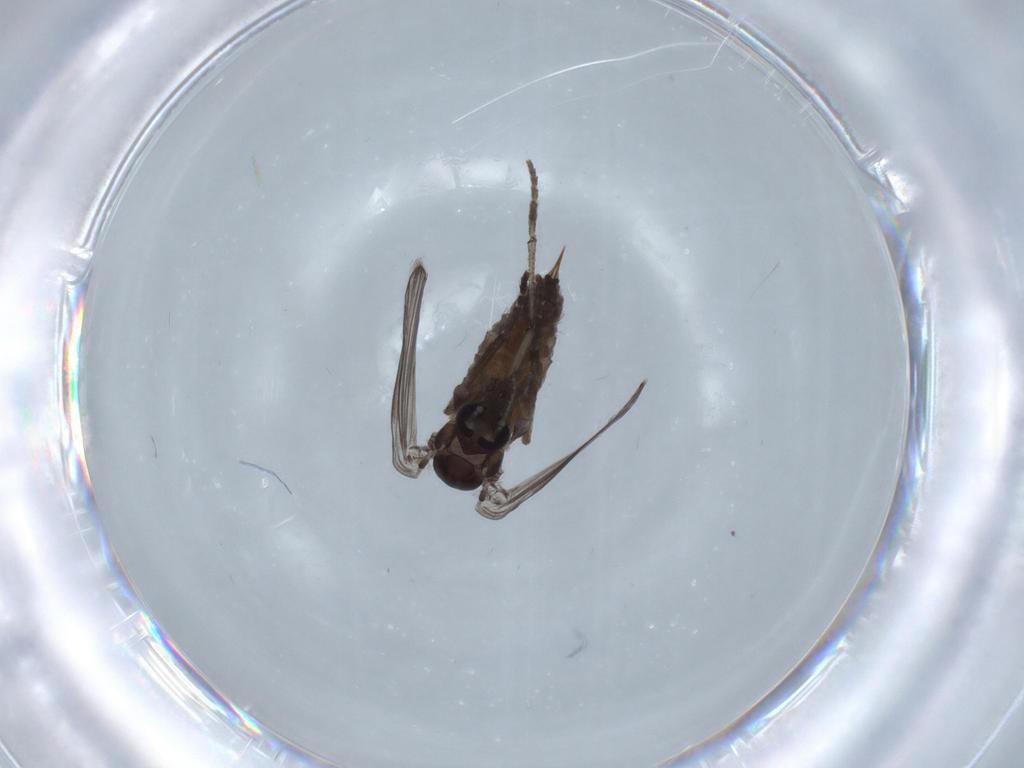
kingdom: Animalia
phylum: Arthropoda
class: Insecta
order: Diptera
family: Psychodidae
